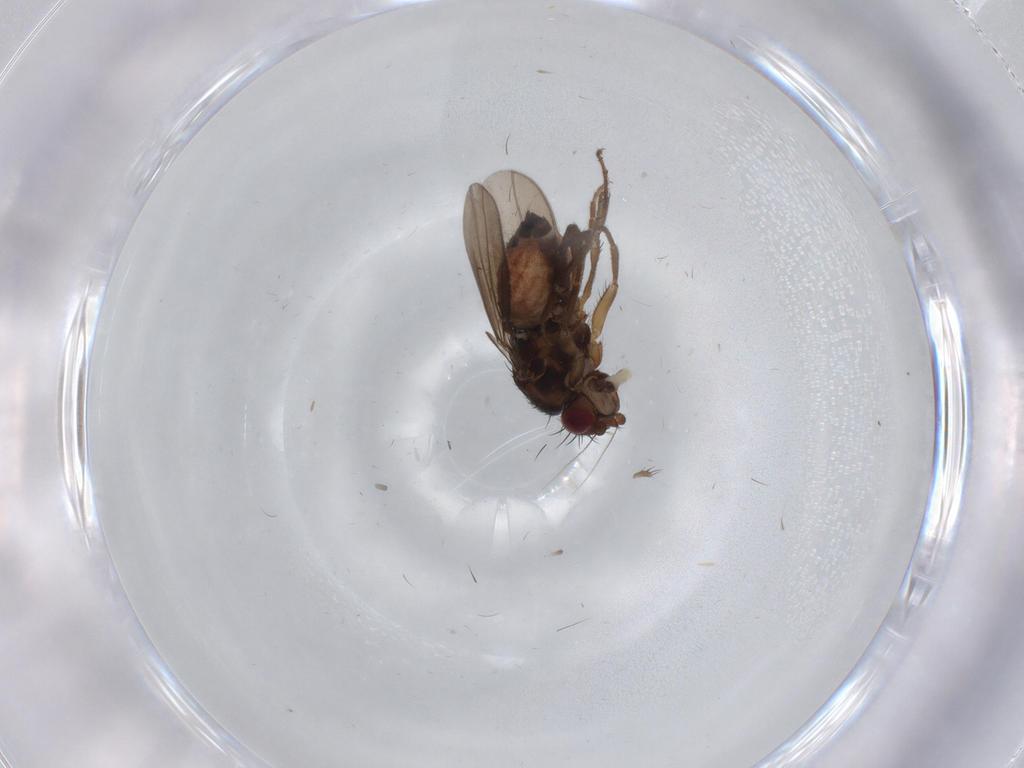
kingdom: Animalia
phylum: Arthropoda
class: Insecta
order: Diptera
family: Sphaeroceridae
